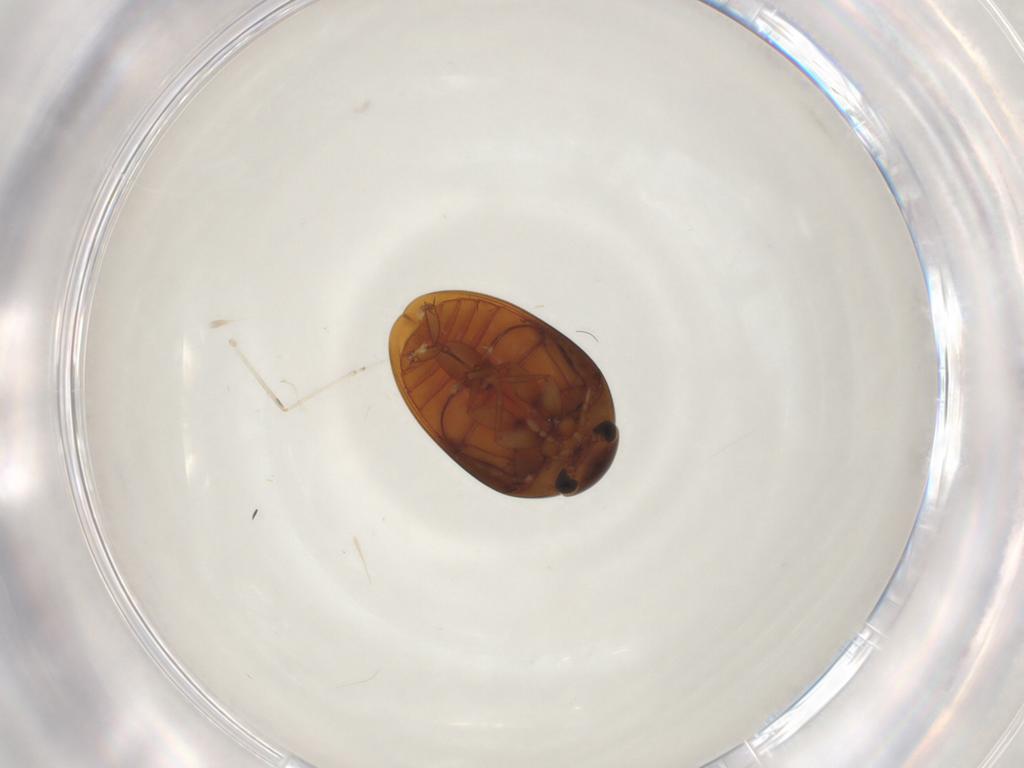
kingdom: Animalia
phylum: Arthropoda
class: Insecta
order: Coleoptera
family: Phalacridae
